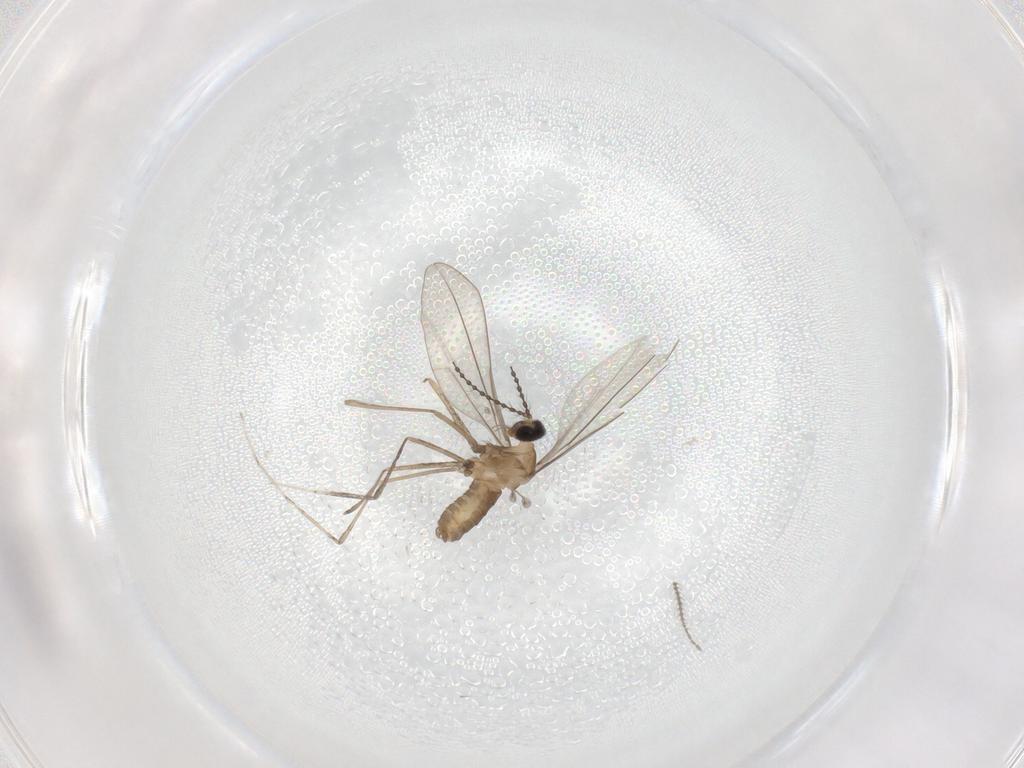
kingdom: Animalia
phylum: Arthropoda
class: Insecta
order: Diptera
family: Cecidomyiidae
